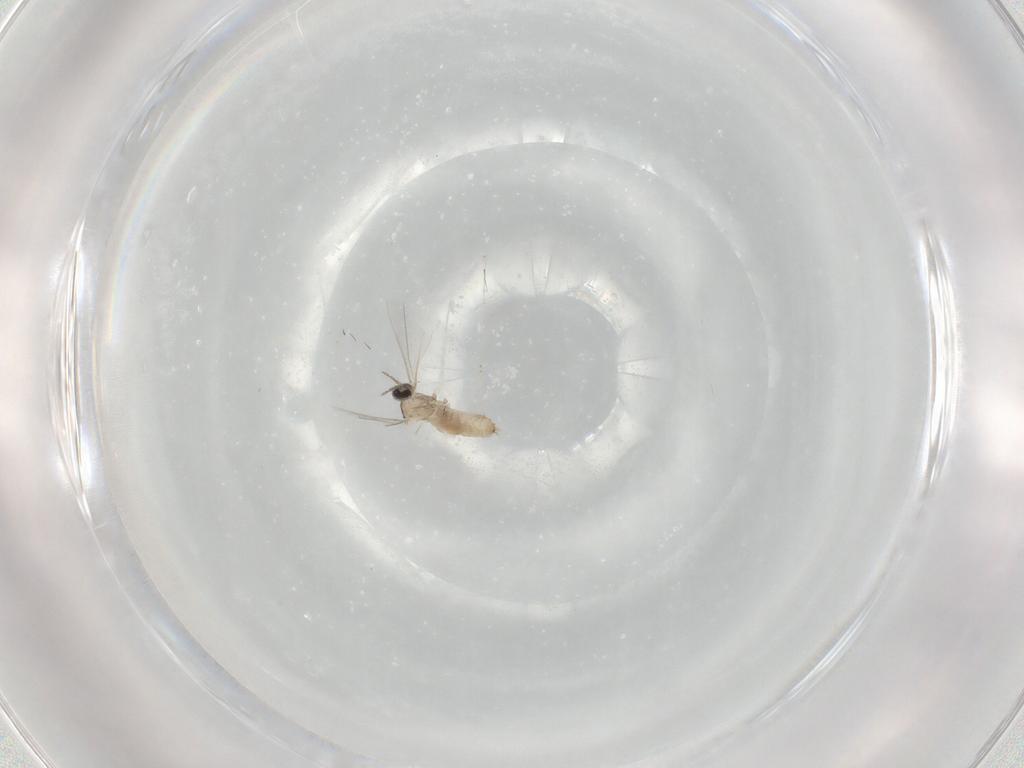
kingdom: Animalia
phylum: Arthropoda
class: Insecta
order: Diptera
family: Cecidomyiidae
